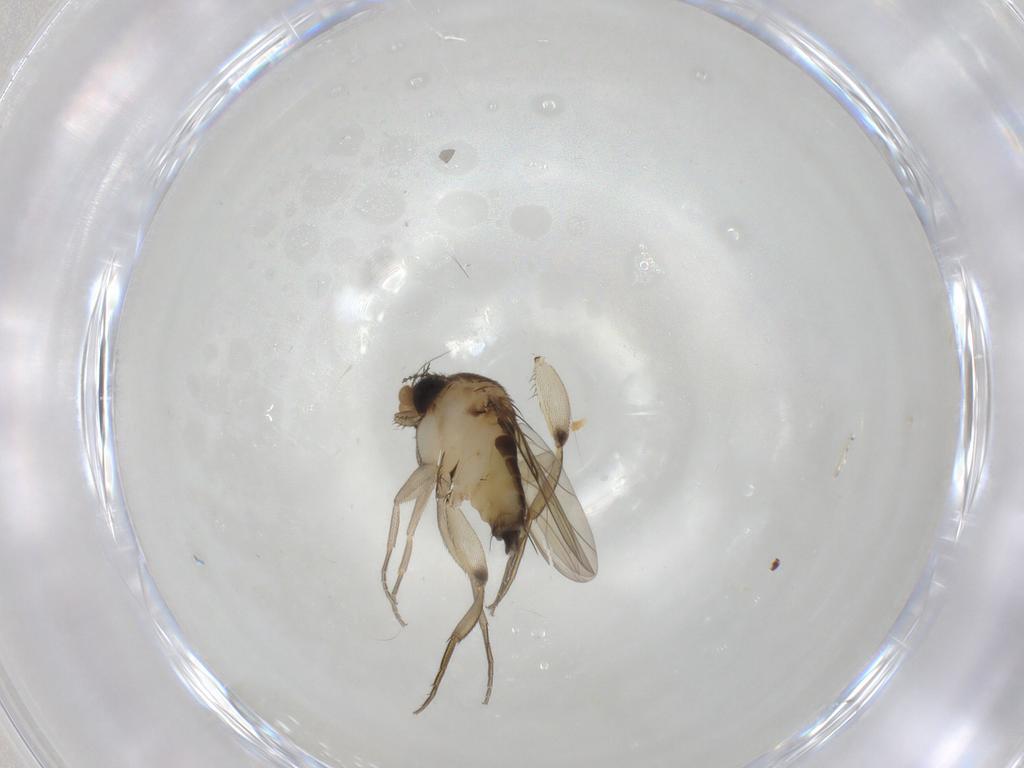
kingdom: Animalia
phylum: Arthropoda
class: Insecta
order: Diptera
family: Phoridae
